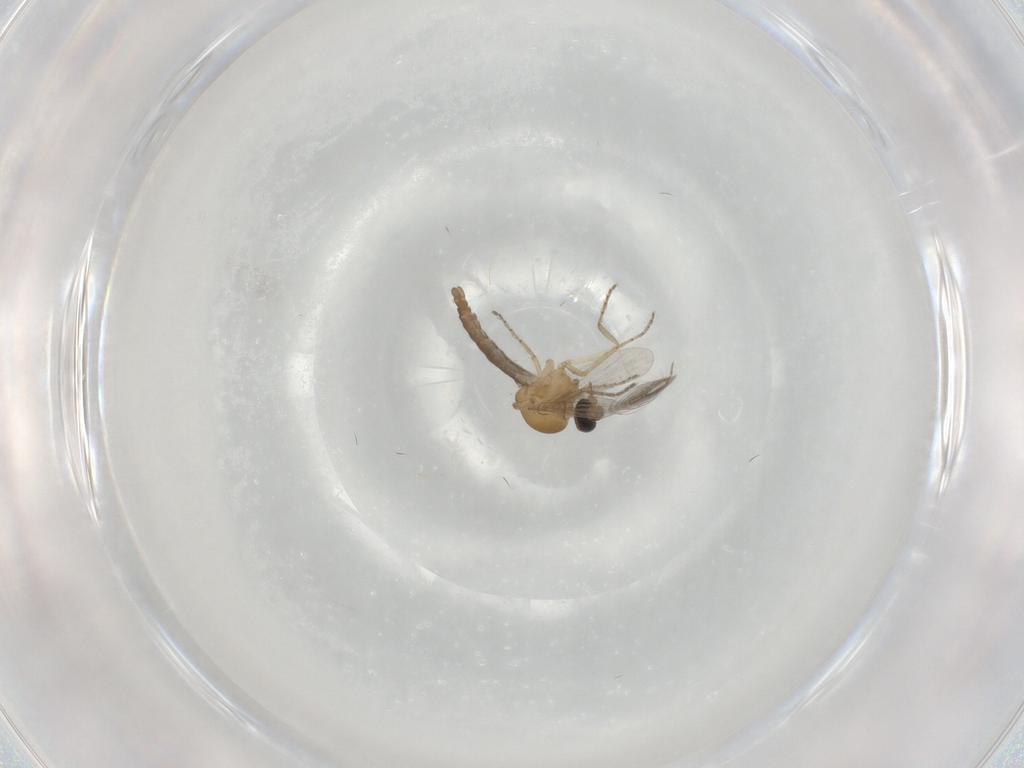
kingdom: Animalia
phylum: Arthropoda
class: Insecta
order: Diptera
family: Ceratopogonidae
